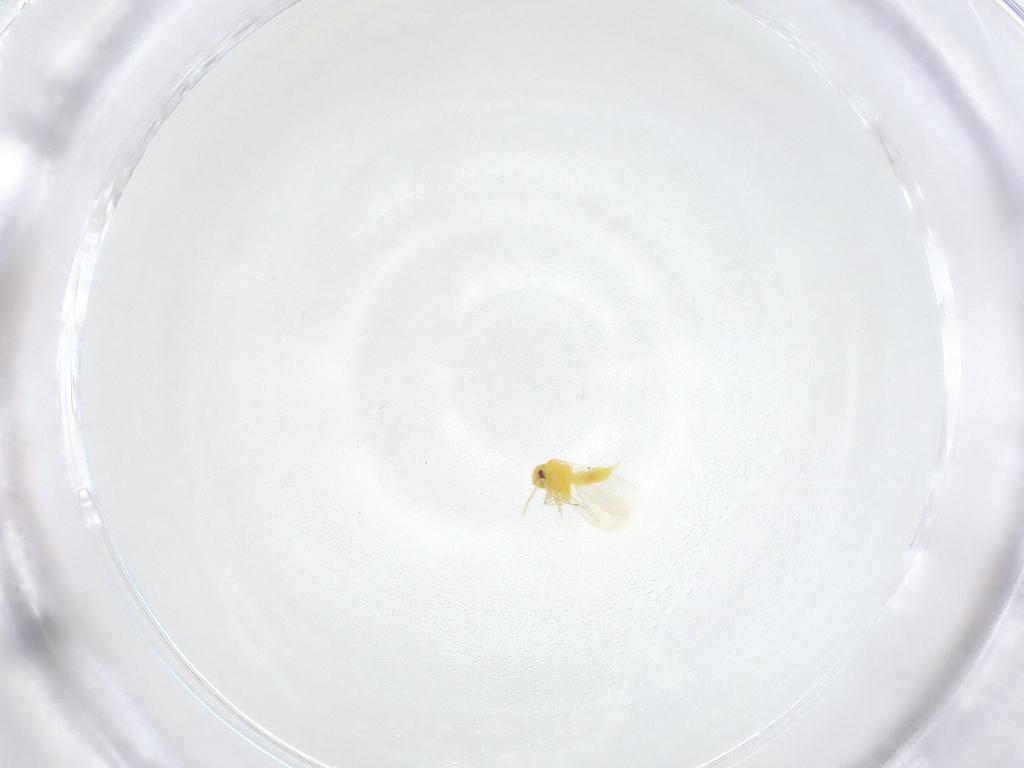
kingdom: Animalia
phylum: Arthropoda
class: Insecta
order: Hemiptera
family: Aleyrodidae
